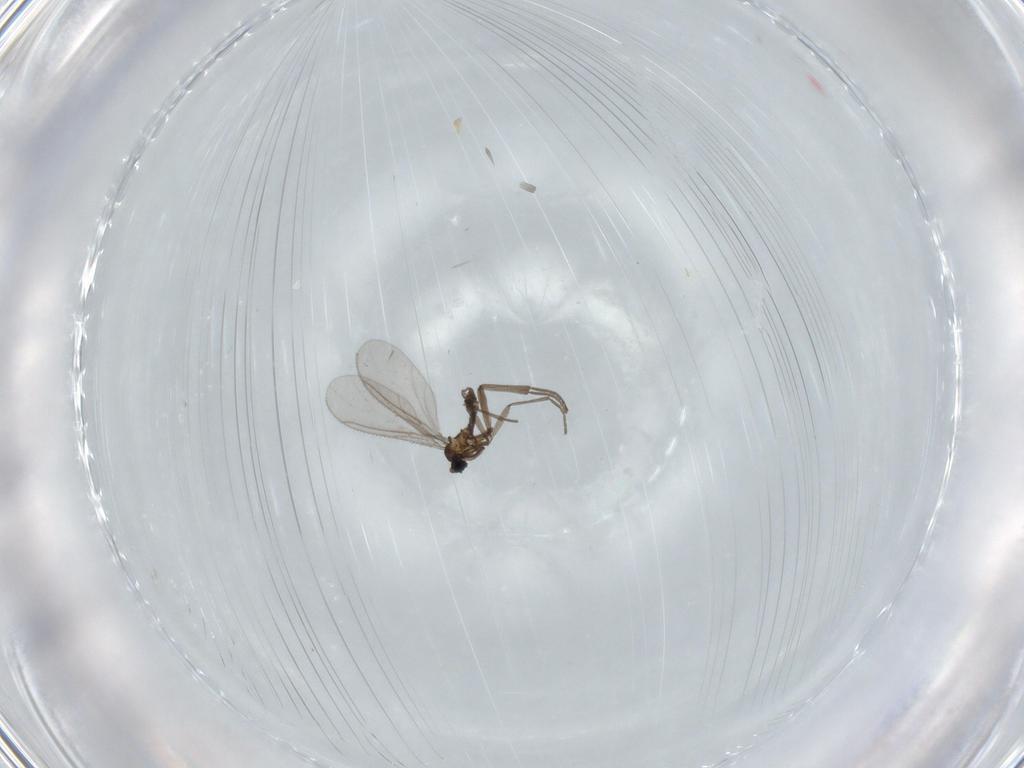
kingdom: Animalia
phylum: Arthropoda
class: Insecta
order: Diptera
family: Sciaridae
